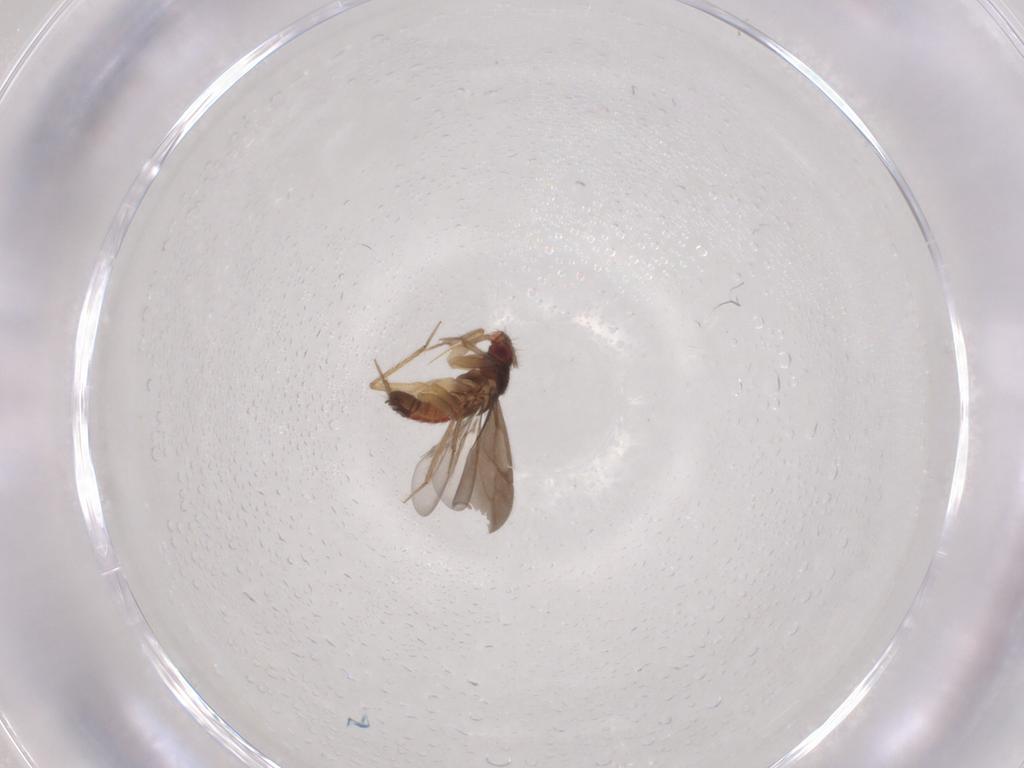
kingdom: Animalia
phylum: Arthropoda
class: Insecta
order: Hemiptera
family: Ceratocombidae
